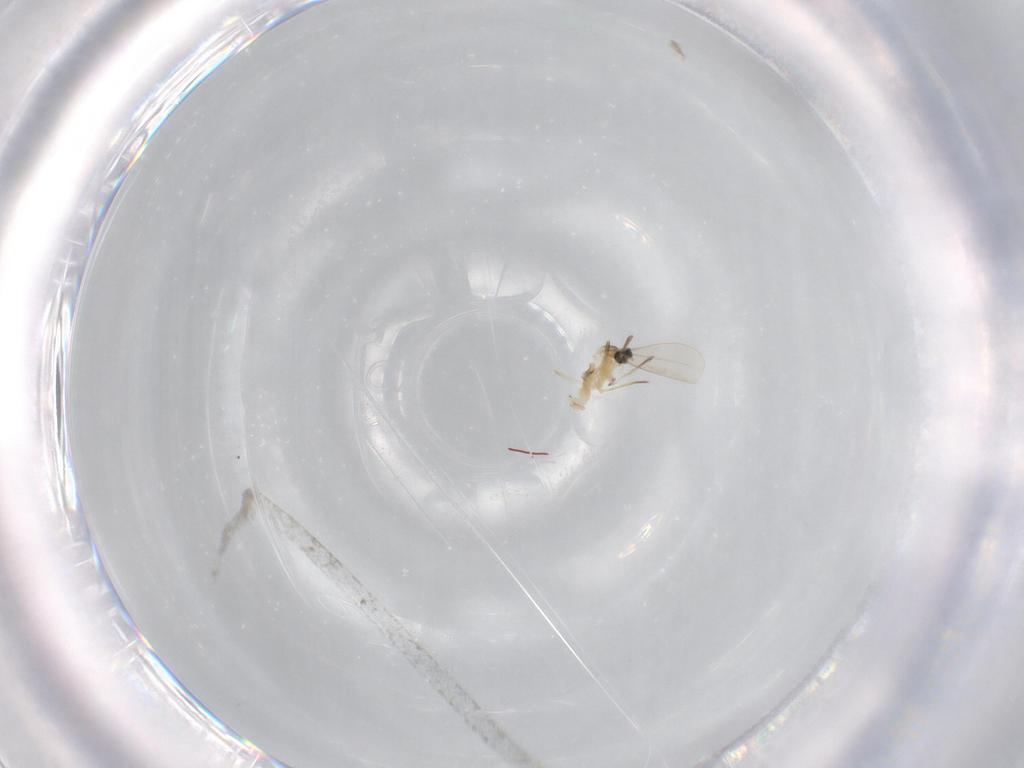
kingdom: Animalia
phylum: Arthropoda
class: Insecta
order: Diptera
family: Cecidomyiidae
